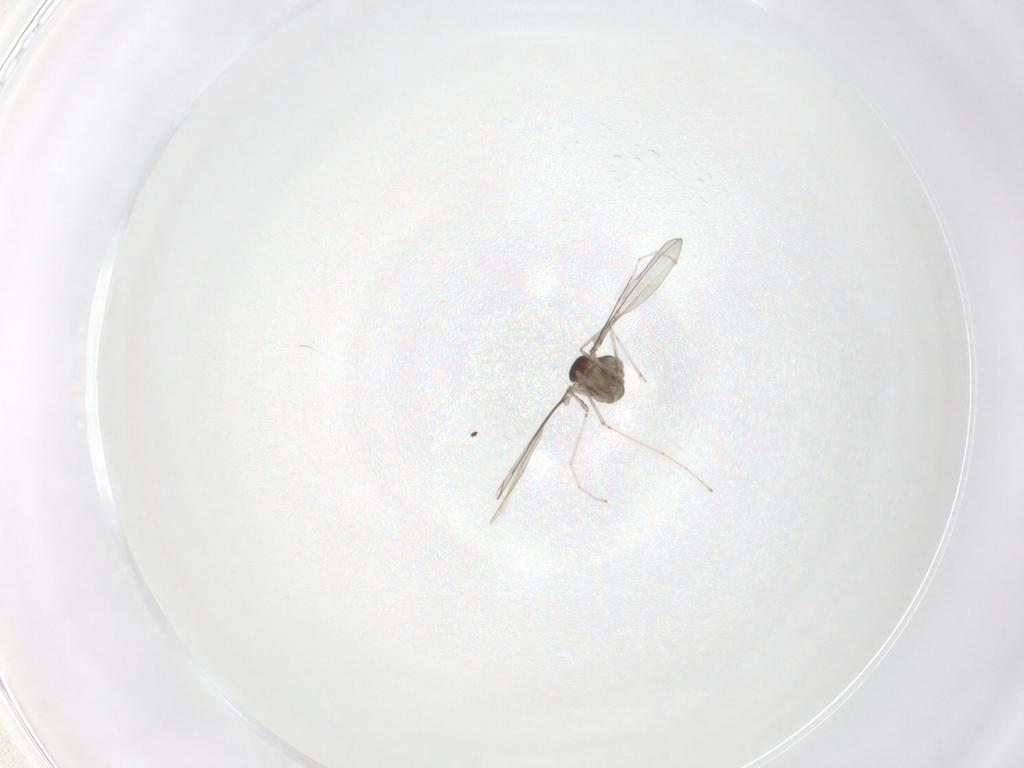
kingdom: Animalia
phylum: Arthropoda
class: Insecta
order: Diptera
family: Cecidomyiidae
